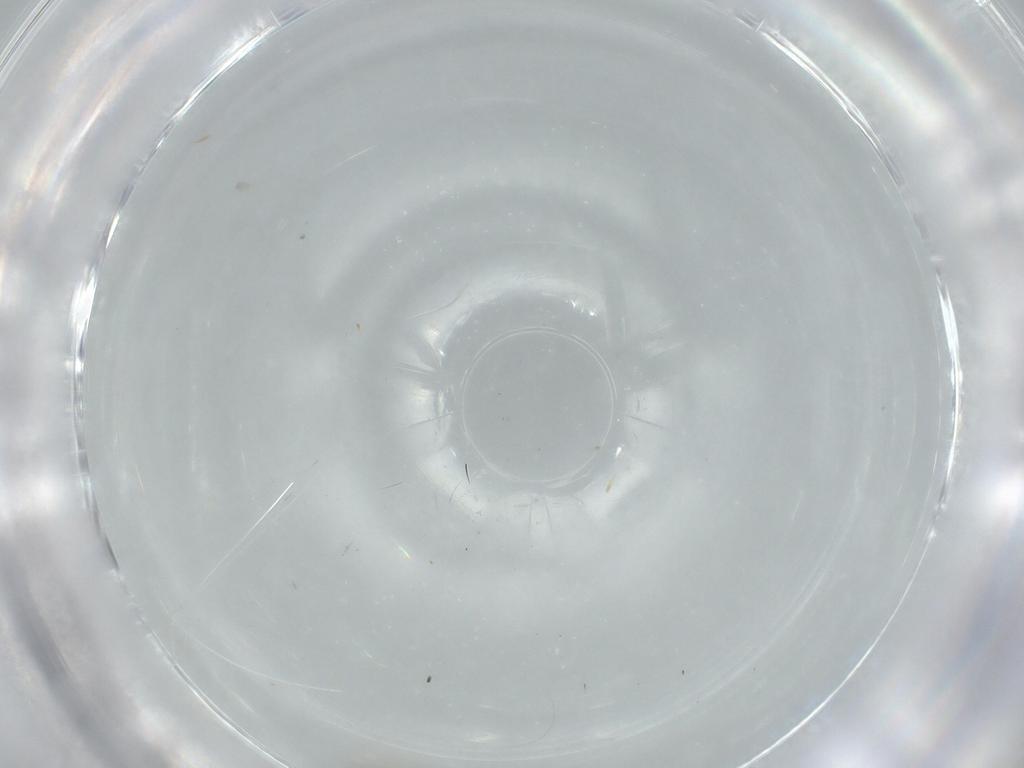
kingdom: Animalia
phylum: Arthropoda
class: Insecta
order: Diptera
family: Cecidomyiidae
